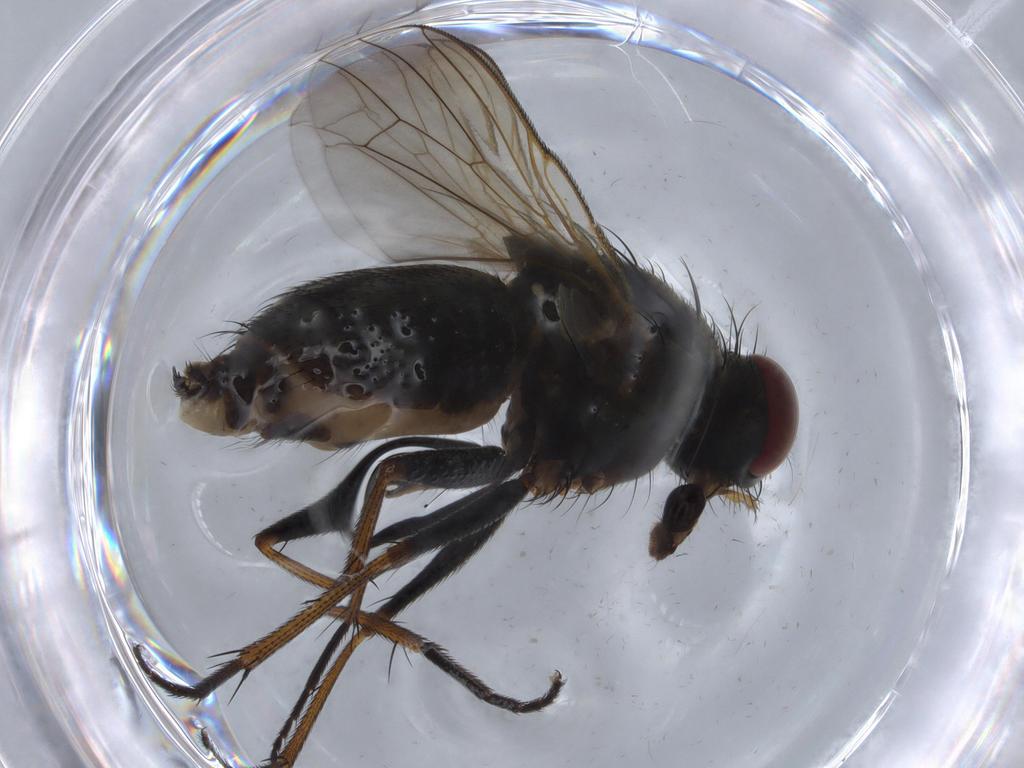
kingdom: Animalia
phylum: Arthropoda
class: Insecta
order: Diptera
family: Muscidae
